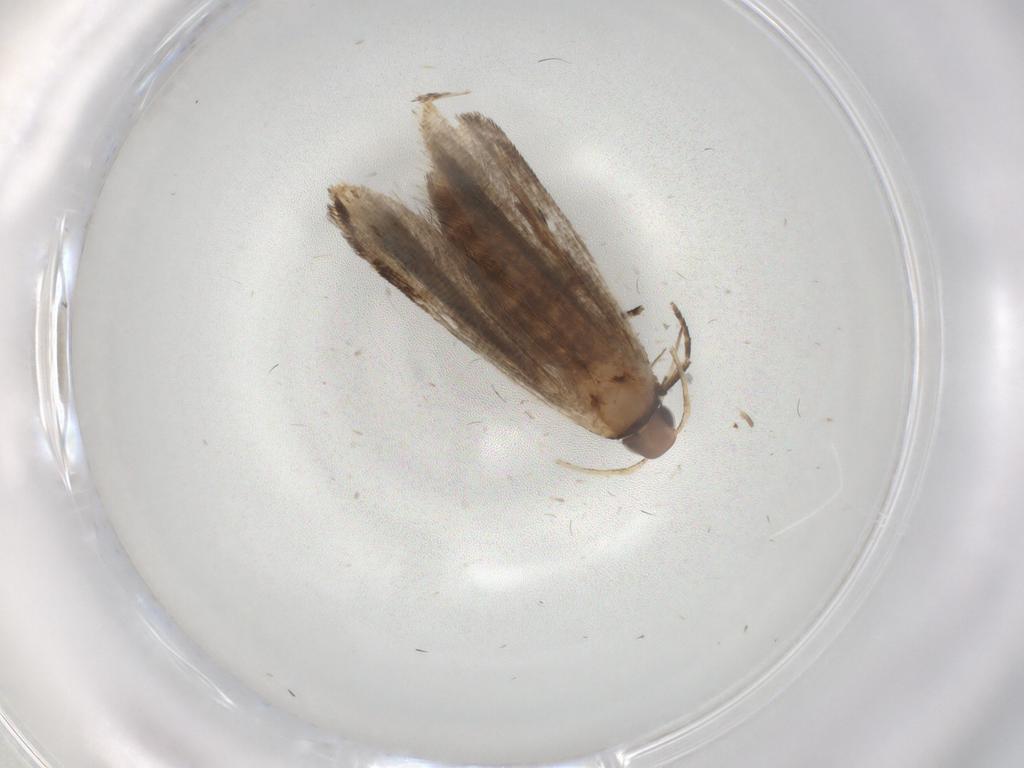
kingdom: Animalia
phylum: Arthropoda
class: Insecta
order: Lepidoptera
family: Gelechiidae
